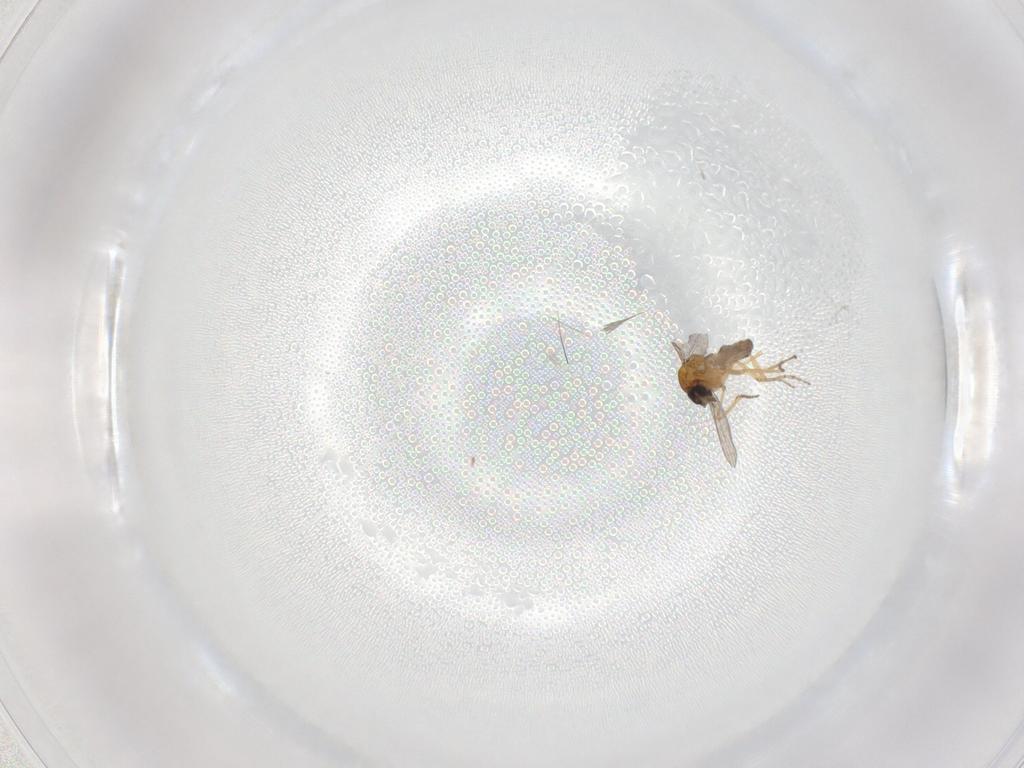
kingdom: Animalia
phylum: Arthropoda
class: Insecta
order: Diptera
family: Ceratopogonidae
